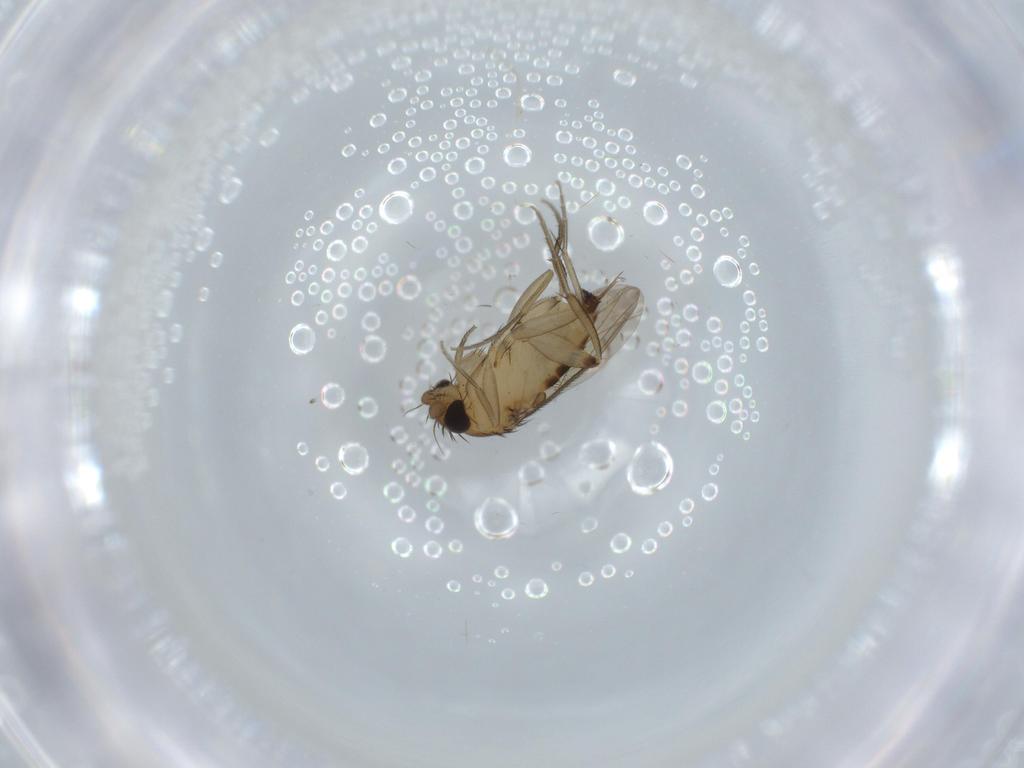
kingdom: Animalia
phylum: Arthropoda
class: Insecta
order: Diptera
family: Phoridae
